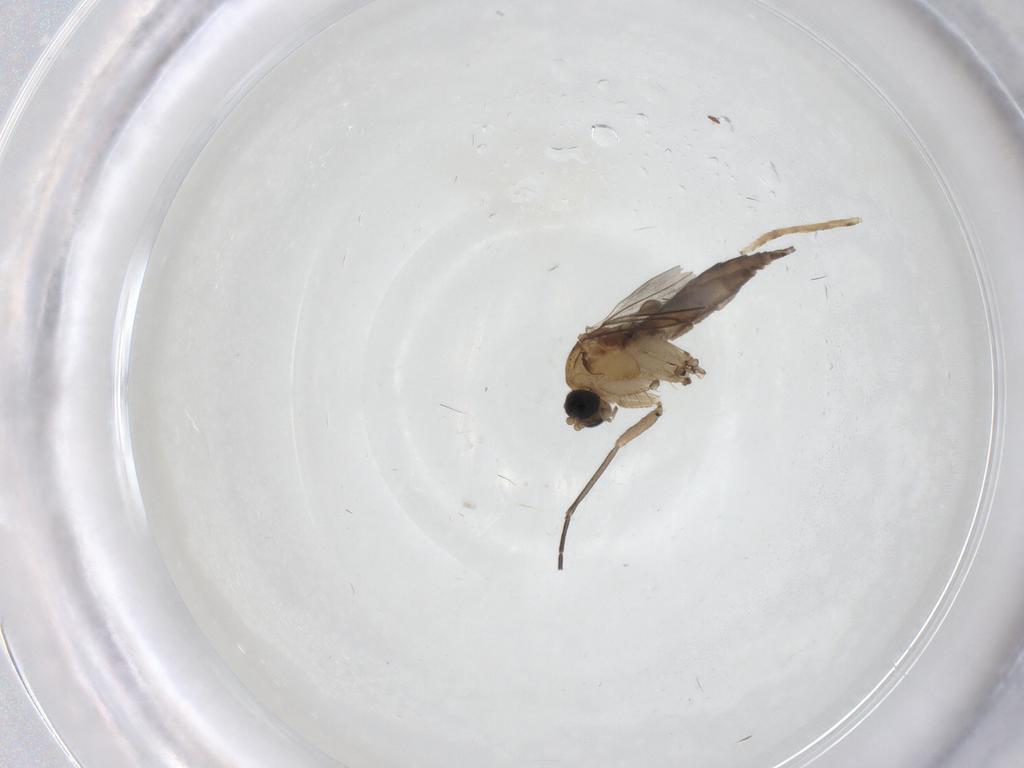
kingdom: Animalia
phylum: Arthropoda
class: Insecta
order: Diptera
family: Sciaridae
